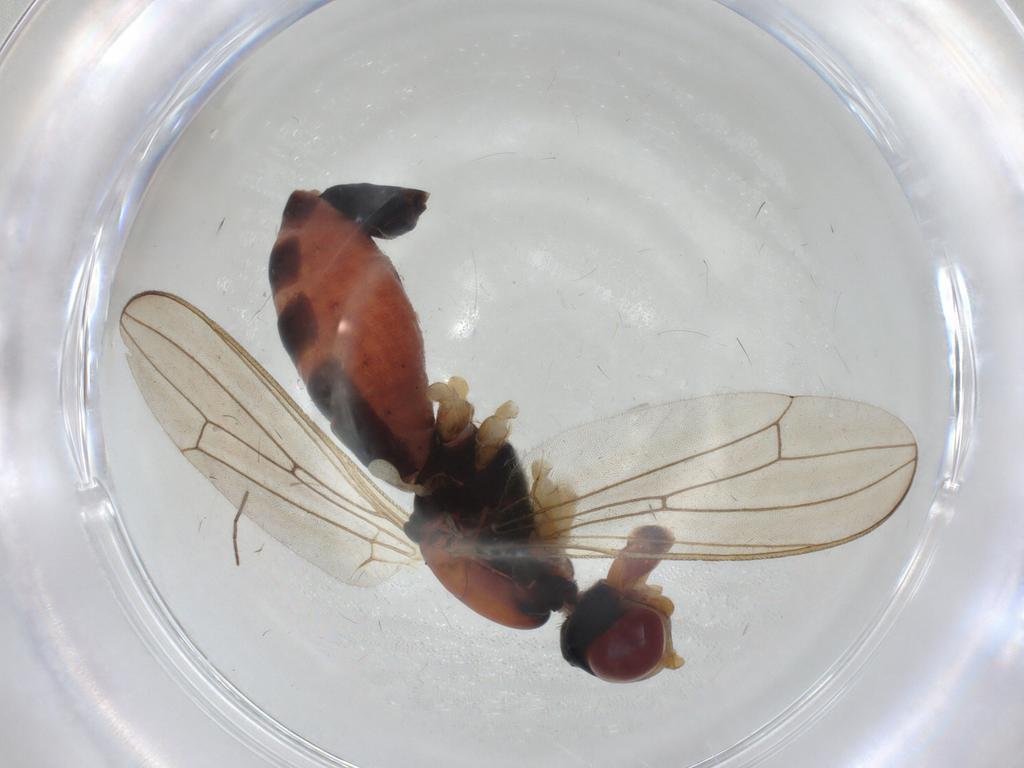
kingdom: Animalia
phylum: Arthropoda
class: Insecta
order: Diptera
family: Micropezidae
